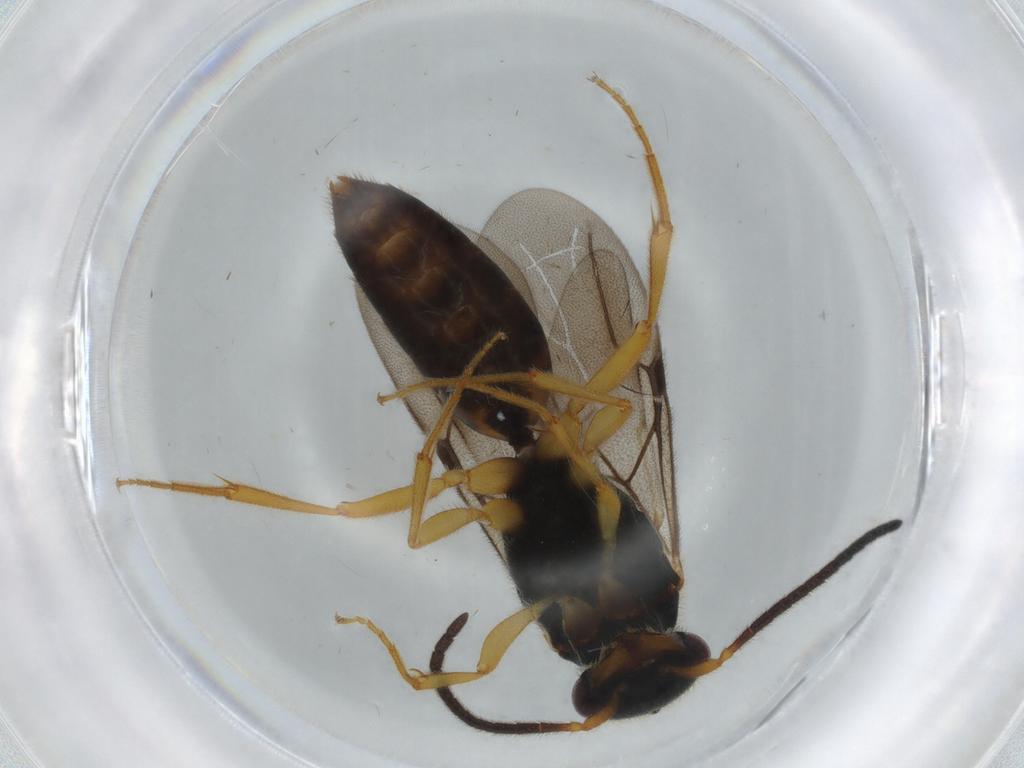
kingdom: Animalia
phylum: Arthropoda
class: Insecta
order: Hymenoptera
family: Bethylidae
